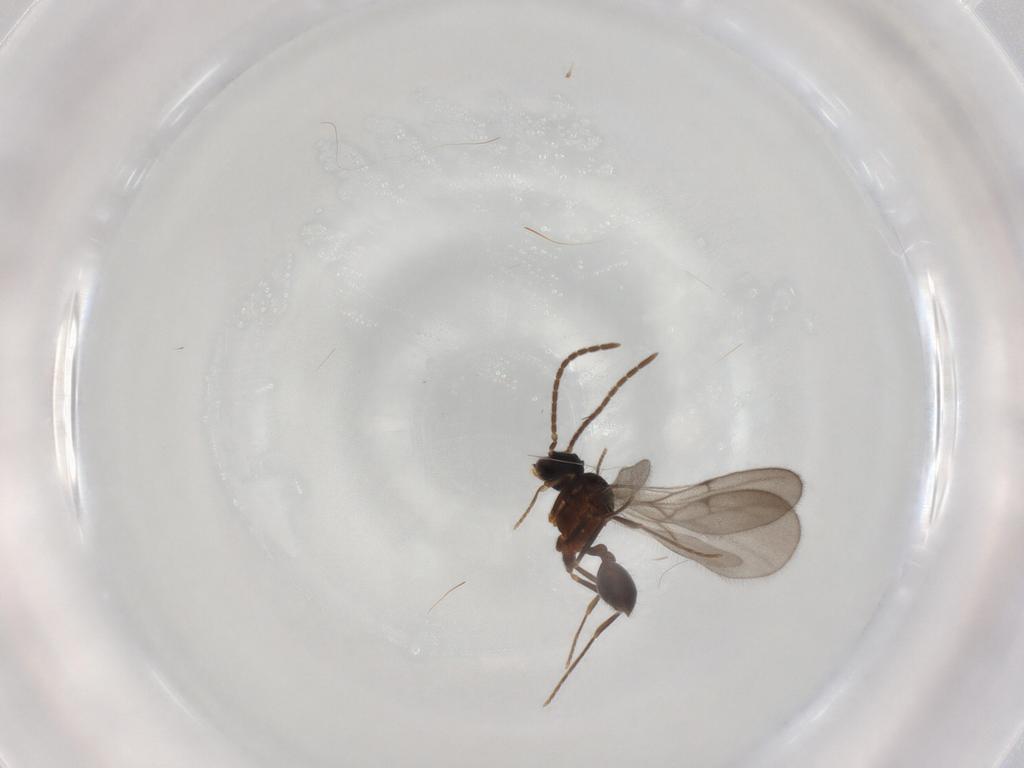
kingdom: Animalia
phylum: Arthropoda
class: Insecta
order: Hymenoptera
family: Formicidae
